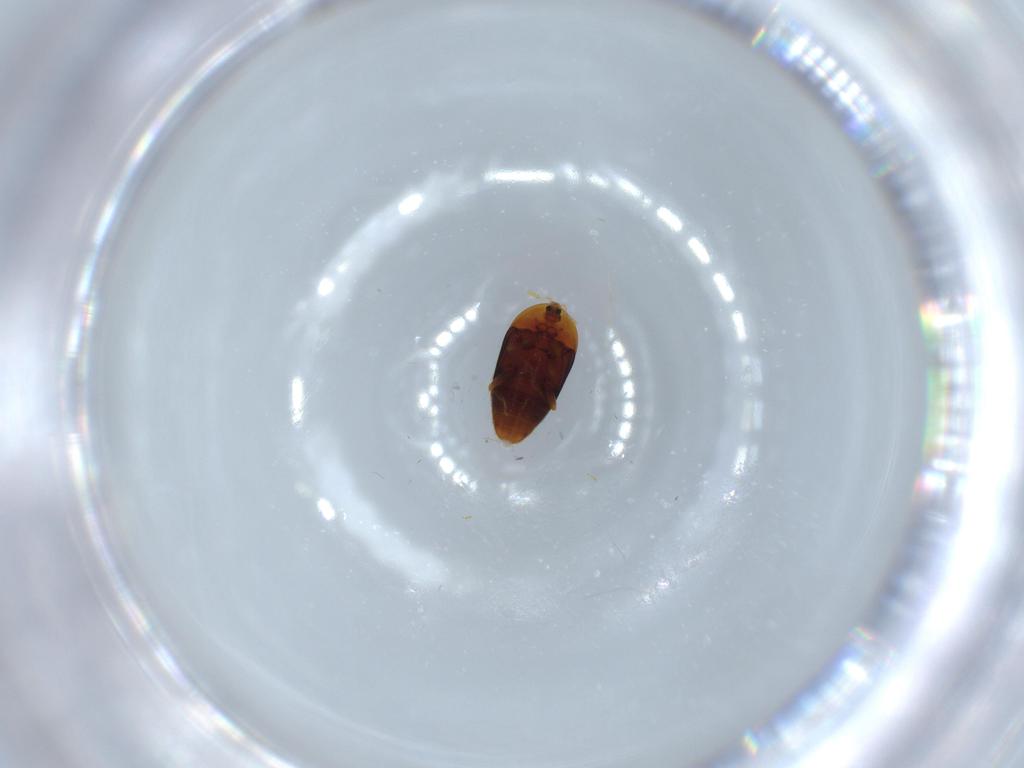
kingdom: Animalia
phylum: Arthropoda
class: Insecta
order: Coleoptera
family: Corylophidae
